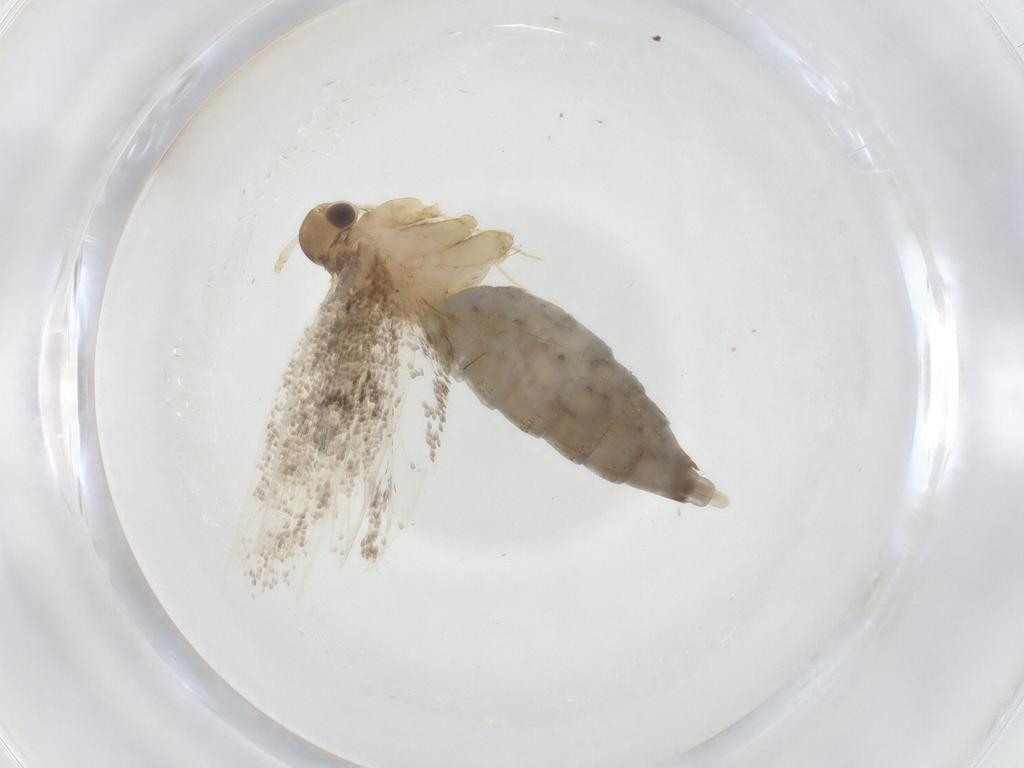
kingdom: Animalia
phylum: Arthropoda
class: Insecta
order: Lepidoptera
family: Lecithoceridae
